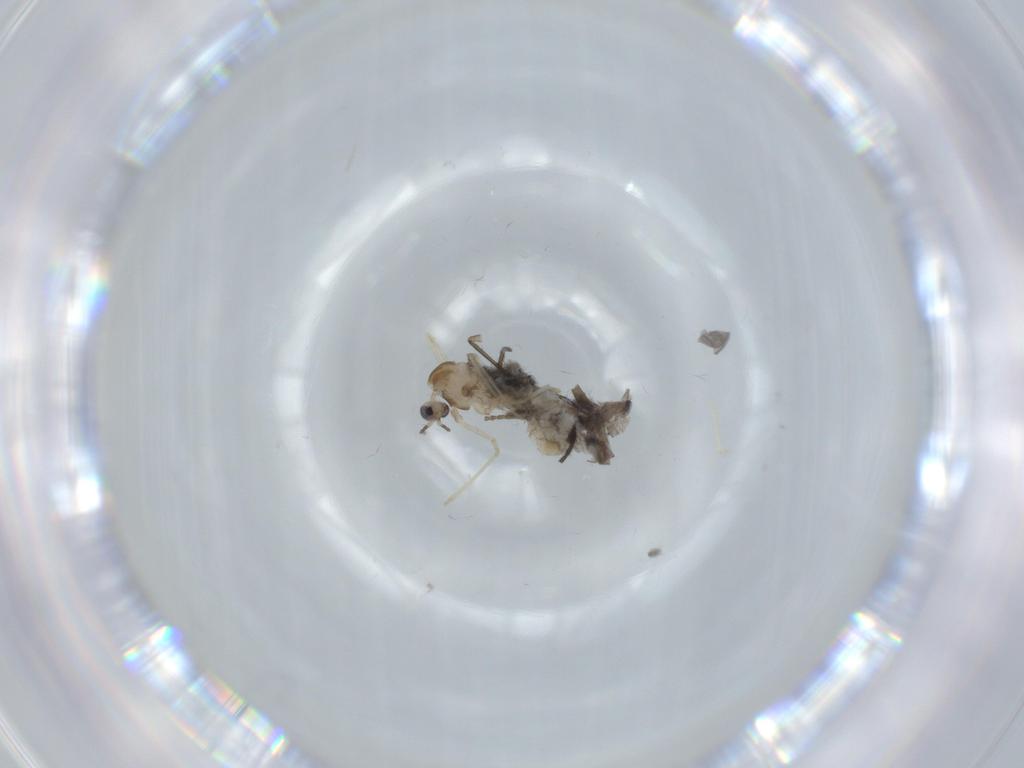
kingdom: Animalia
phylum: Arthropoda
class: Insecta
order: Diptera
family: Cecidomyiidae
